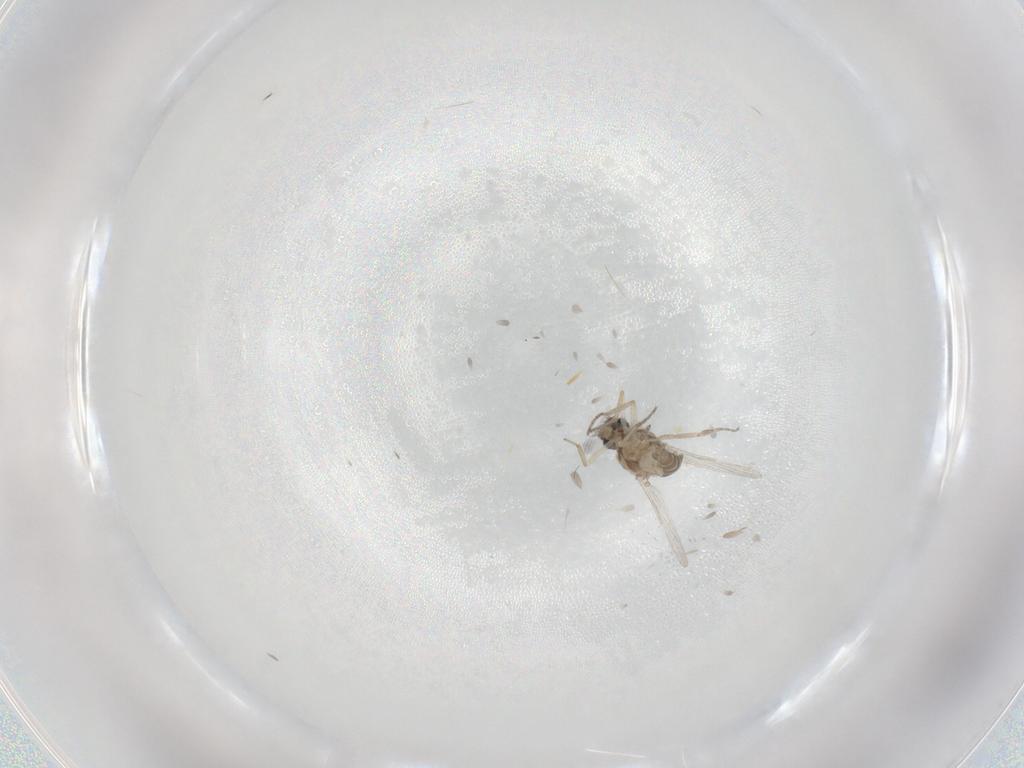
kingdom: Animalia
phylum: Arthropoda
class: Insecta
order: Diptera
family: Ceratopogonidae
